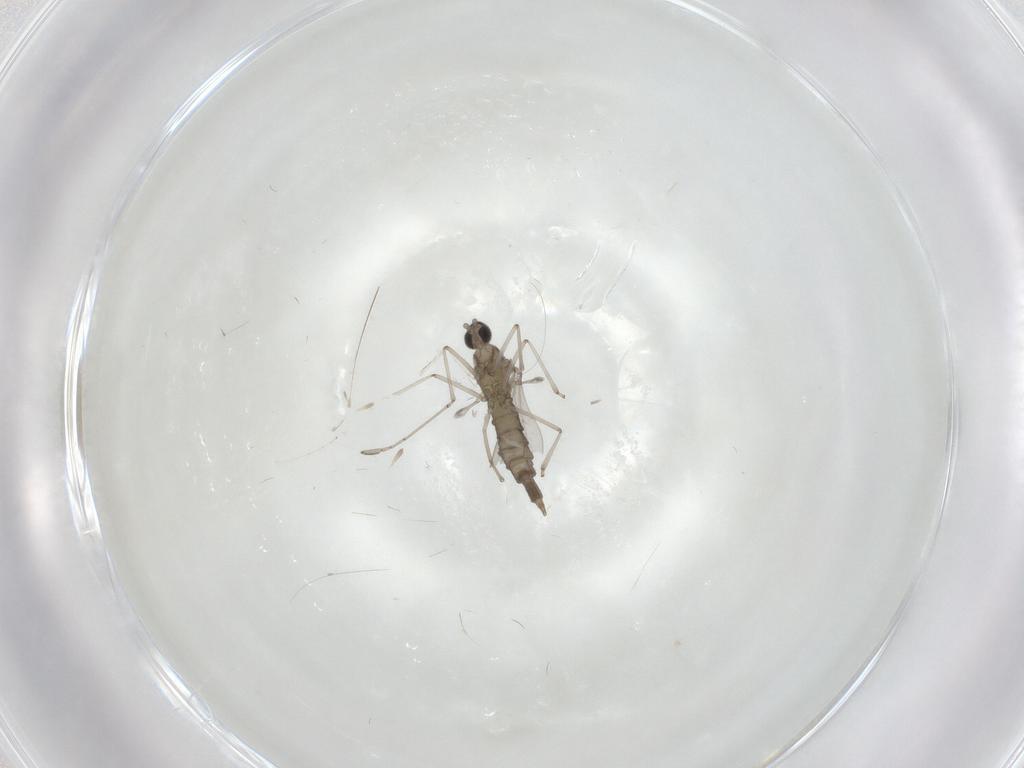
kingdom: Animalia
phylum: Arthropoda
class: Insecta
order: Diptera
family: Cecidomyiidae
